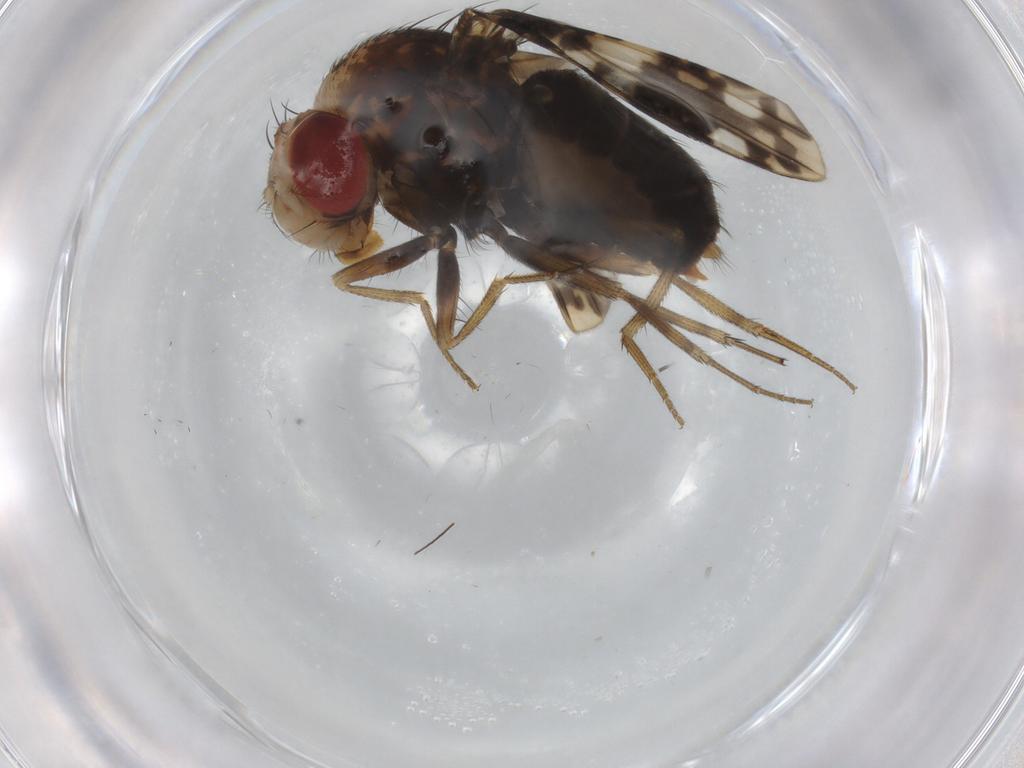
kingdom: Animalia
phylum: Arthropoda
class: Insecta
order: Diptera
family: Drosophilidae
